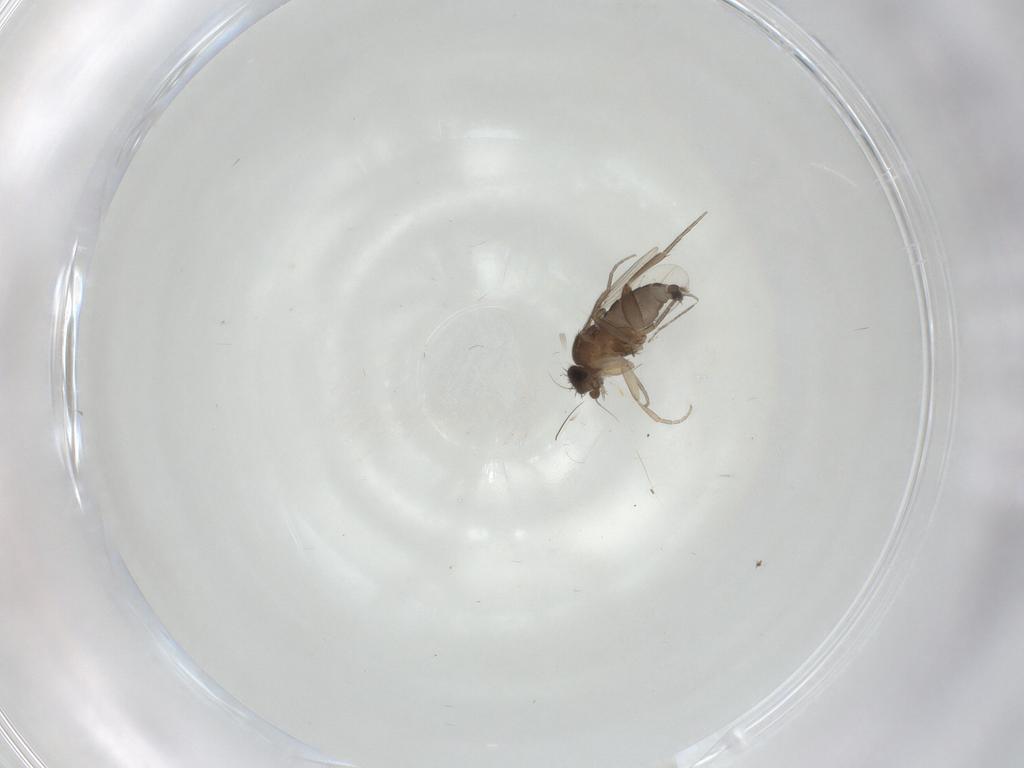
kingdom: Animalia
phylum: Arthropoda
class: Insecta
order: Diptera
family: Phoridae
